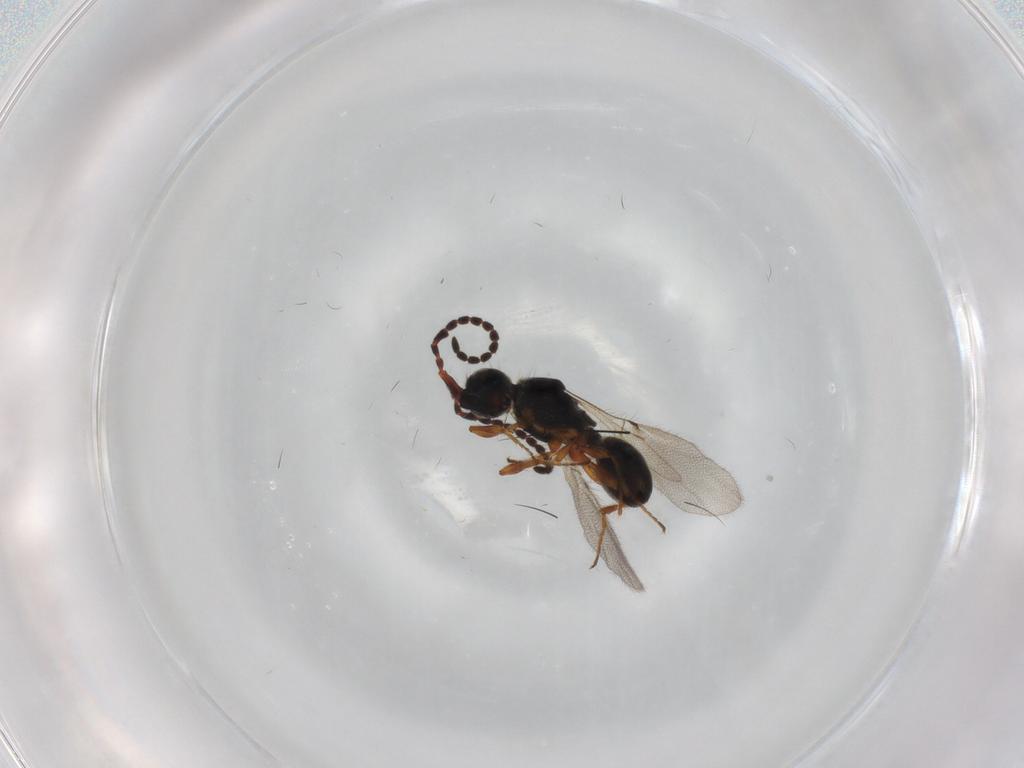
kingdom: Animalia
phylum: Arthropoda
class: Insecta
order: Hymenoptera
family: Diapriidae
